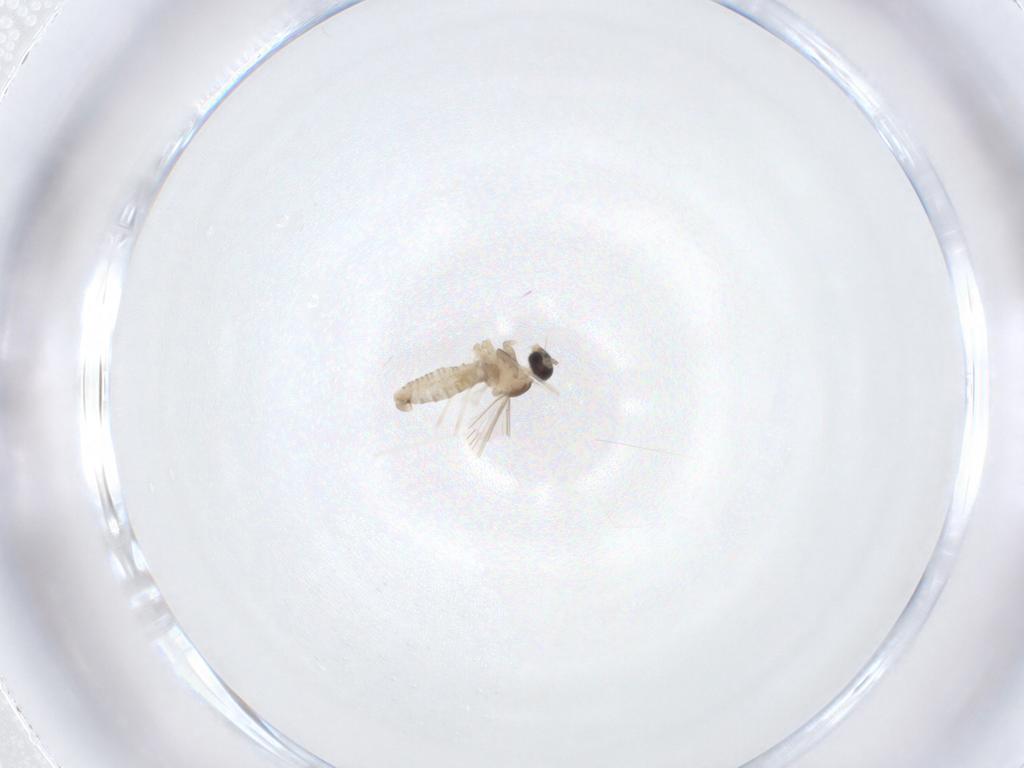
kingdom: Animalia
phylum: Arthropoda
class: Insecta
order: Diptera
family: Cecidomyiidae
